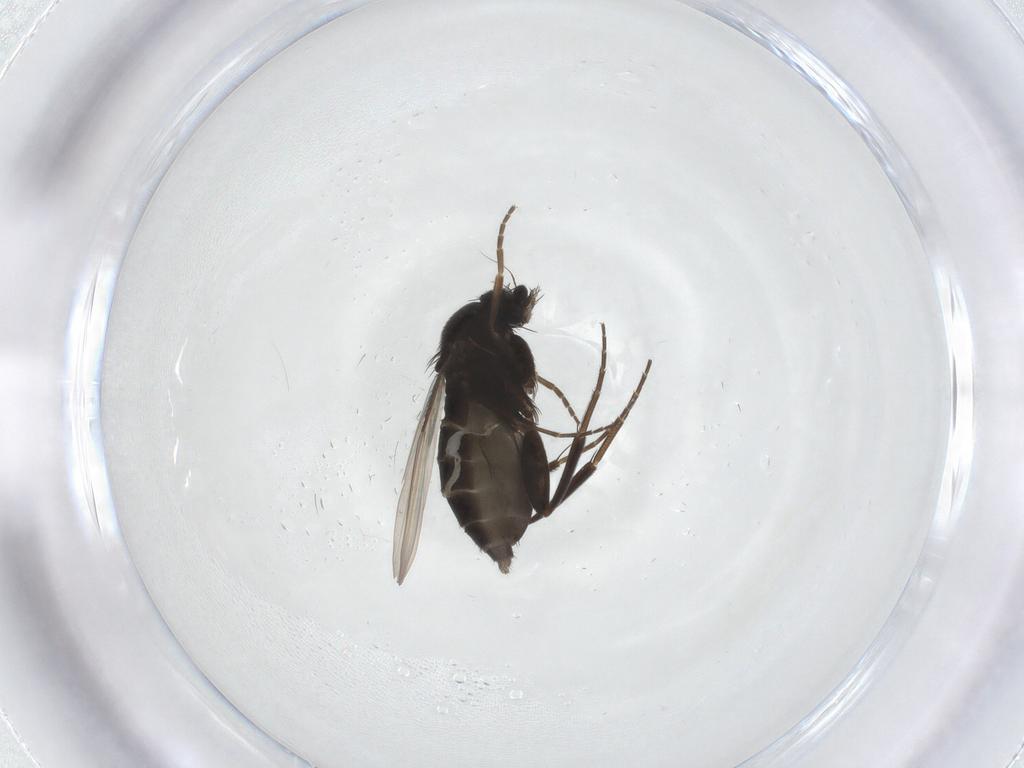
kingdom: Animalia
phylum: Arthropoda
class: Insecta
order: Diptera
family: Phoridae
